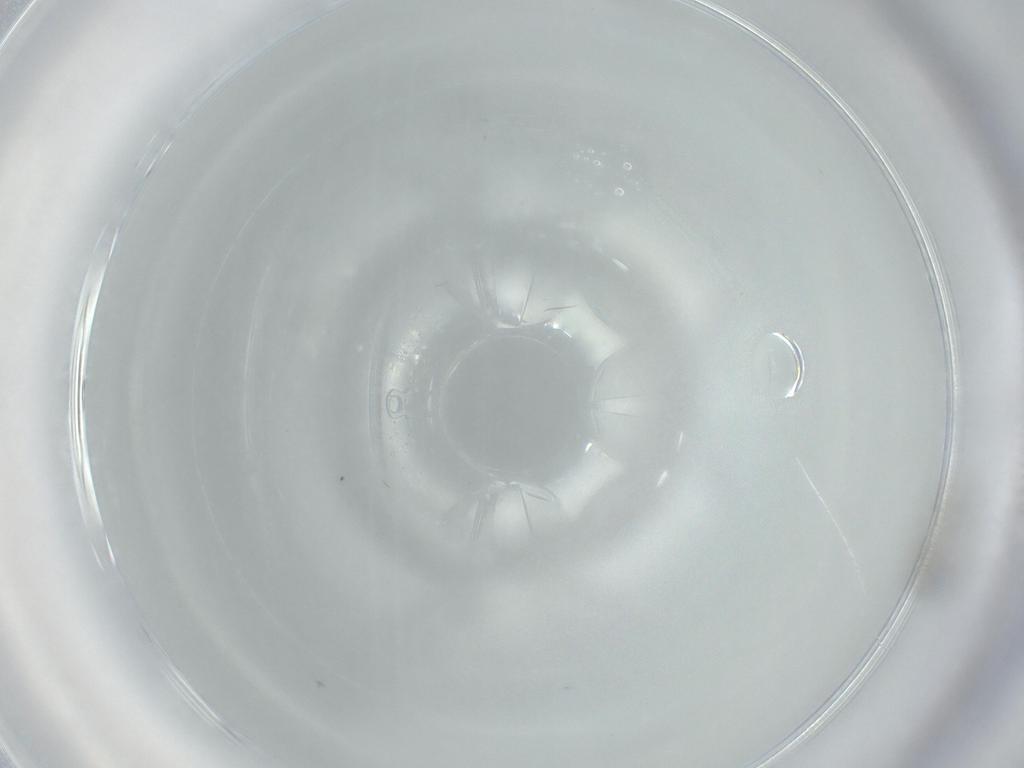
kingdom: Animalia
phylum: Arthropoda
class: Insecta
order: Diptera
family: Cecidomyiidae
